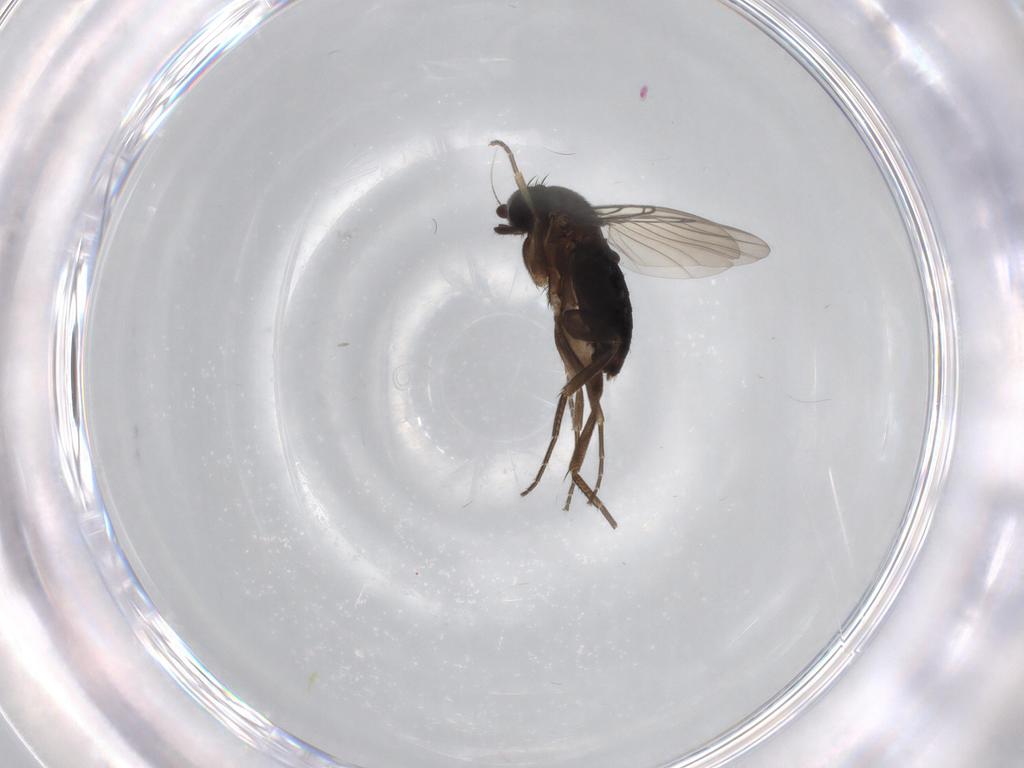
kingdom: Animalia
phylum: Arthropoda
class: Insecta
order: Diptera
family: Phoridae
